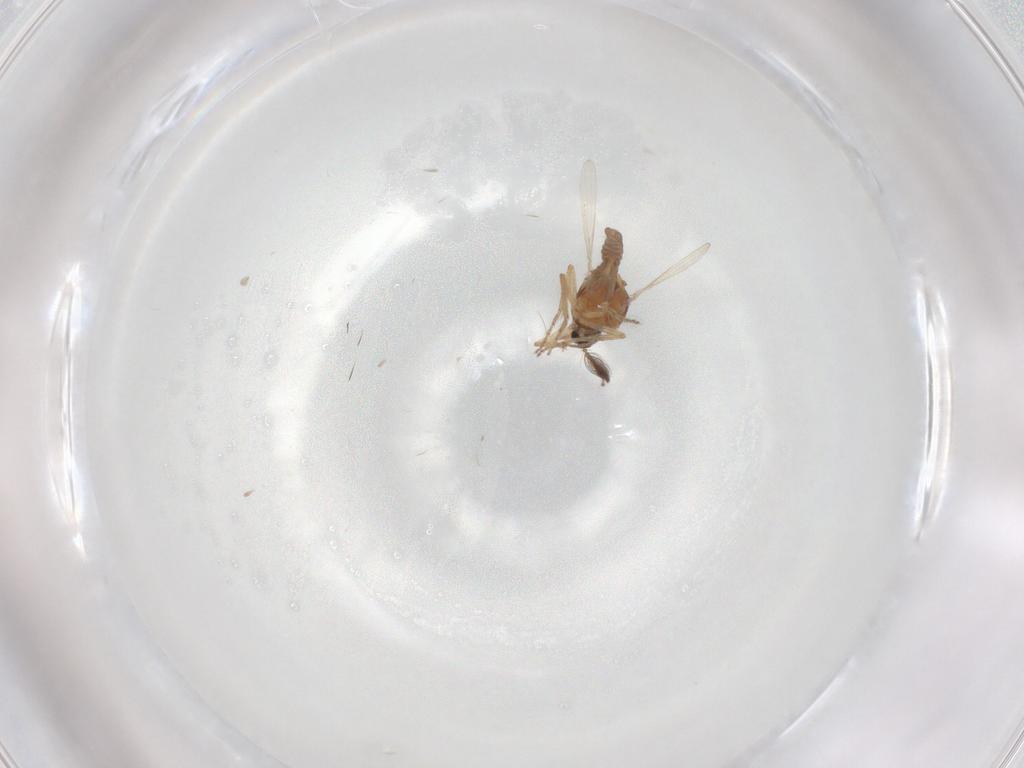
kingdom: Animalia
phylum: Arthropoda
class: Insecta
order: Diptera
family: Ceratopogonidae
